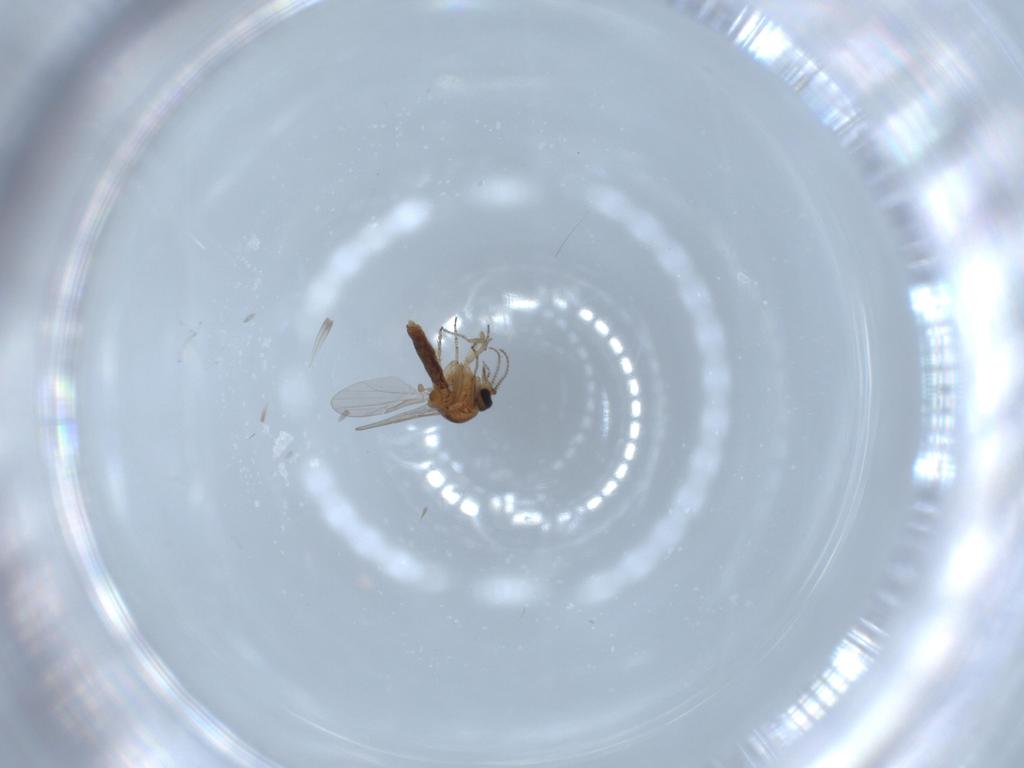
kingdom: Animalia
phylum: Arthropoda
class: Insecta
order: Diptera
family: Ceratopogonidae
